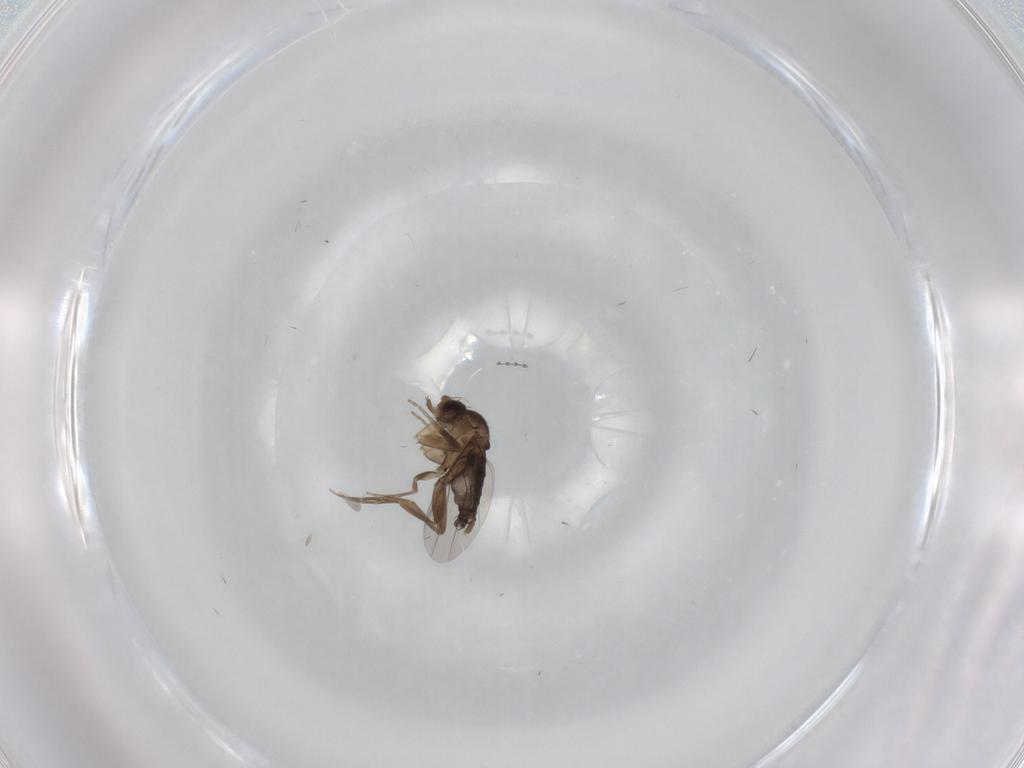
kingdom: Animalia
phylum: Arthropoda
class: Insecta
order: Diptera
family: Phoridae
